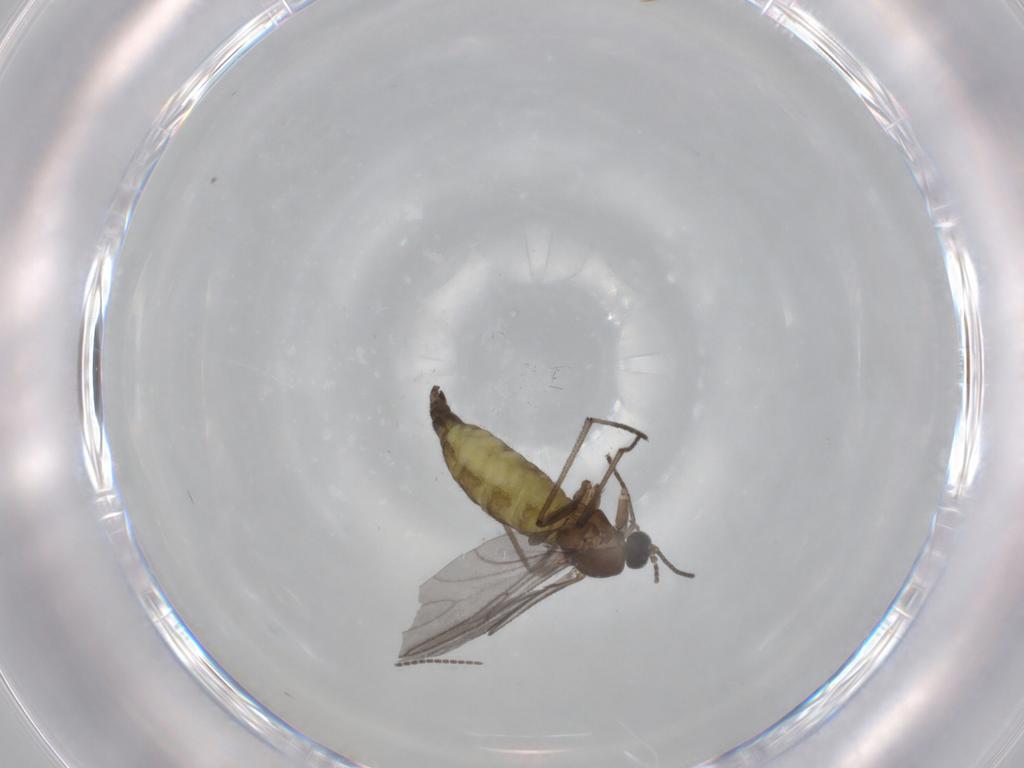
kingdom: Animalia
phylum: Arthropoda
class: Insecta
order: Diptera
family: Sciaridae
